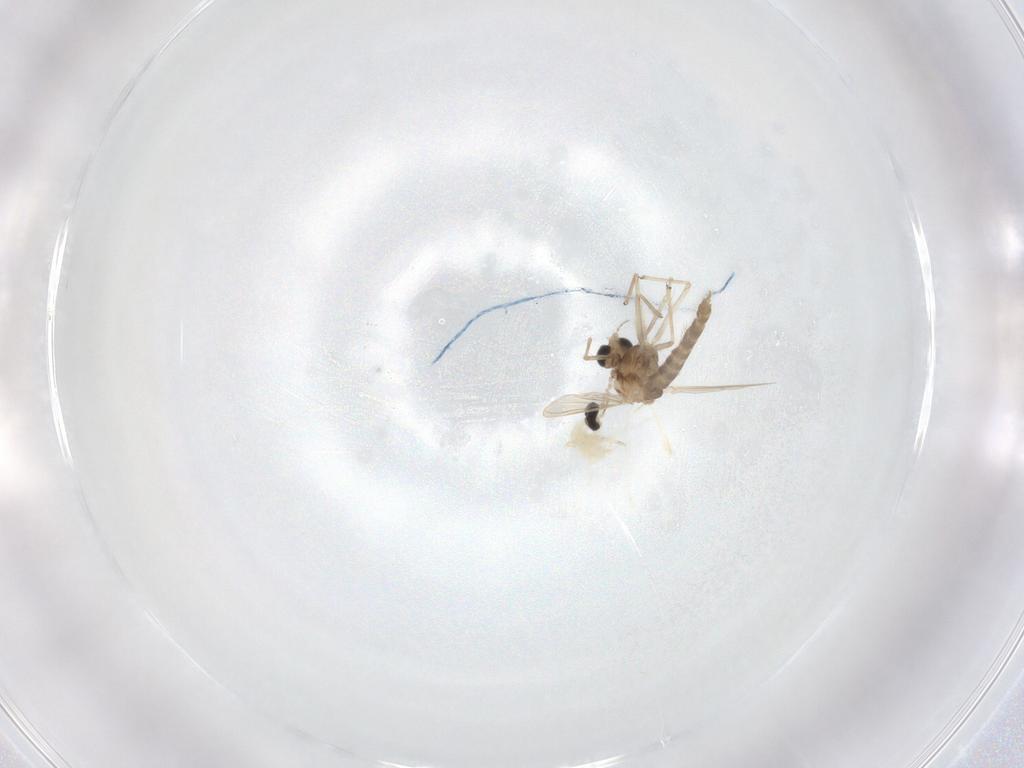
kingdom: Animalia
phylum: Arthropoda
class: Insecta
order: Diptera
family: Chironomidae
